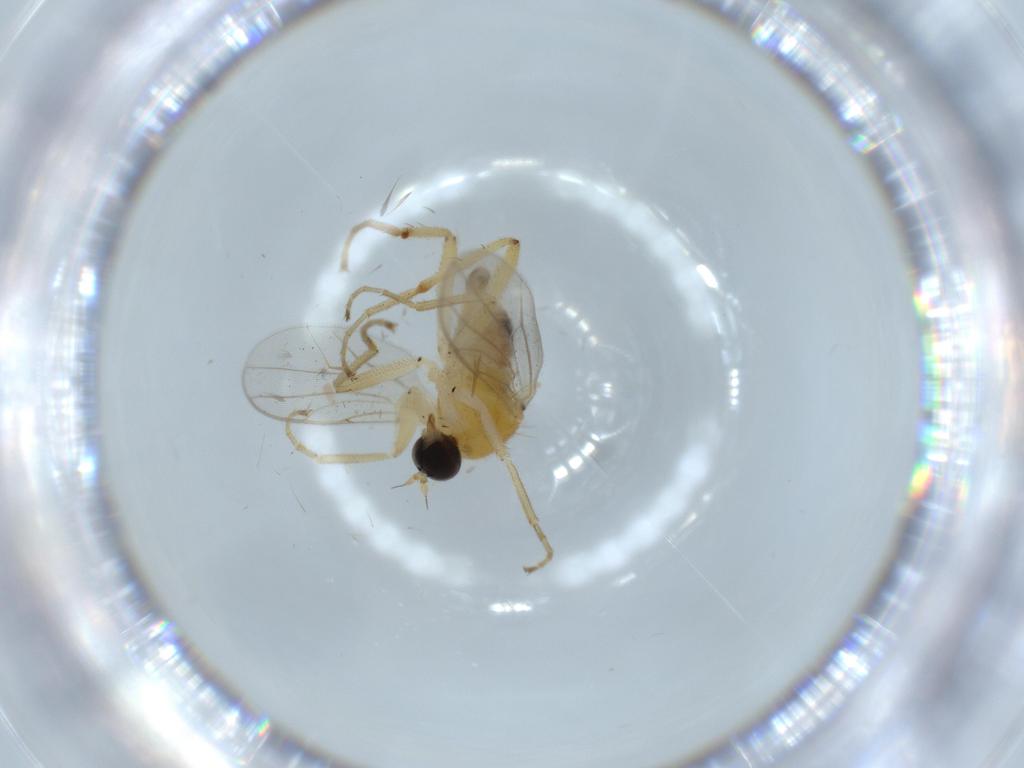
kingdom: Animalia
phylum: Arthropoda
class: Insecta
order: Diptera
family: Hybotidae
